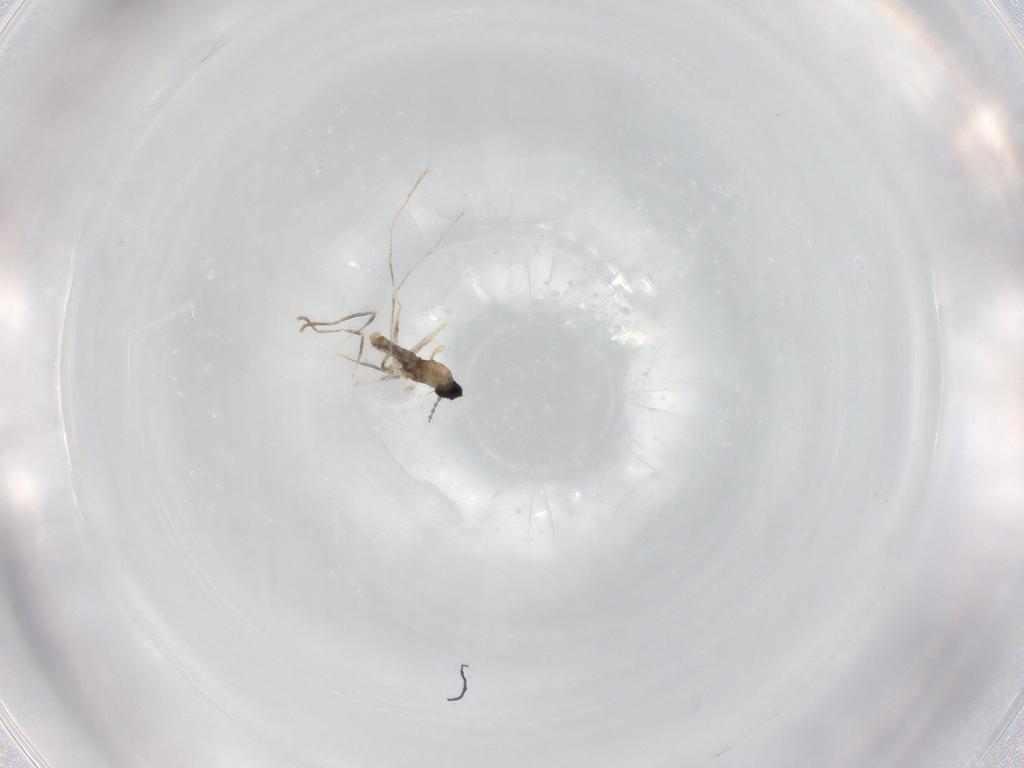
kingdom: Animalia
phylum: Arthropoda
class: Insecta
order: Diptera
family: Cecidomyiidae
